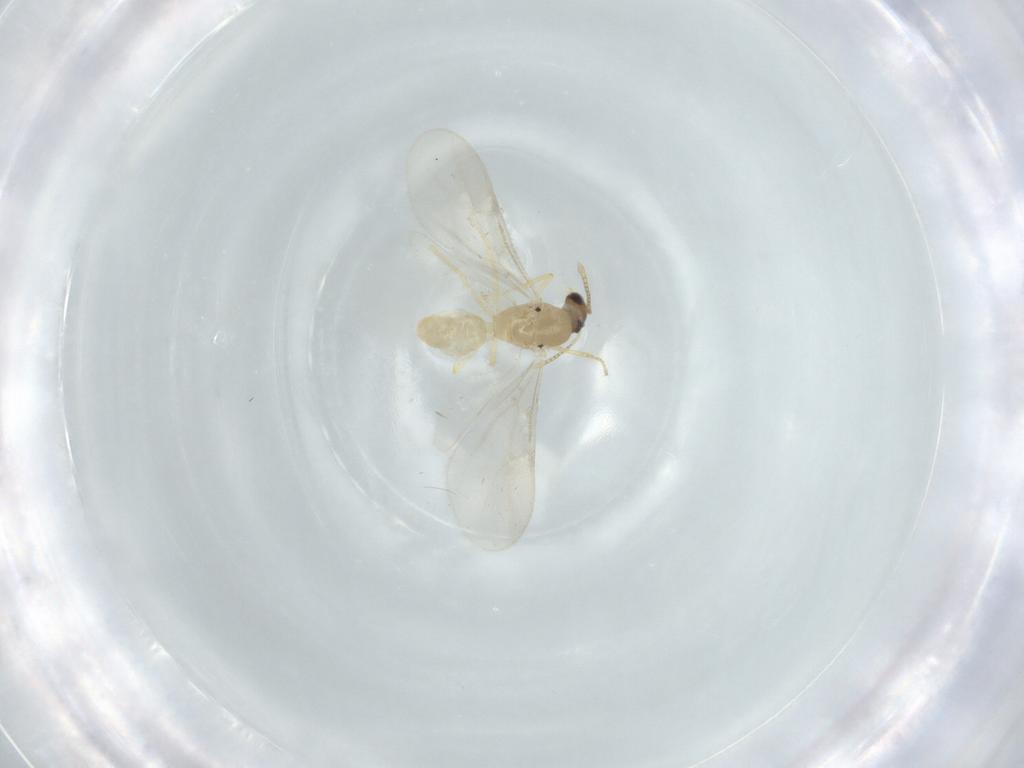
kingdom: Animalia
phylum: Arthropoda
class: Insecta
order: Hymenoptera
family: Formicidae
